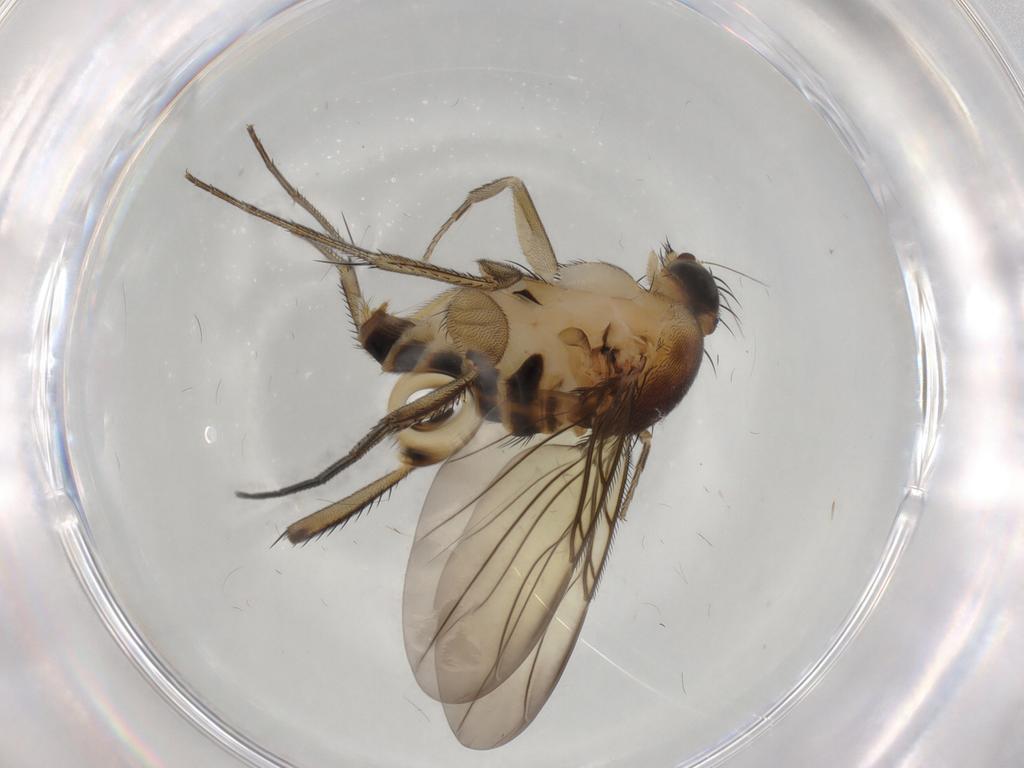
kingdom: Animalia
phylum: Arthropoda
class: Insecta
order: Diptera
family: Phoridae
